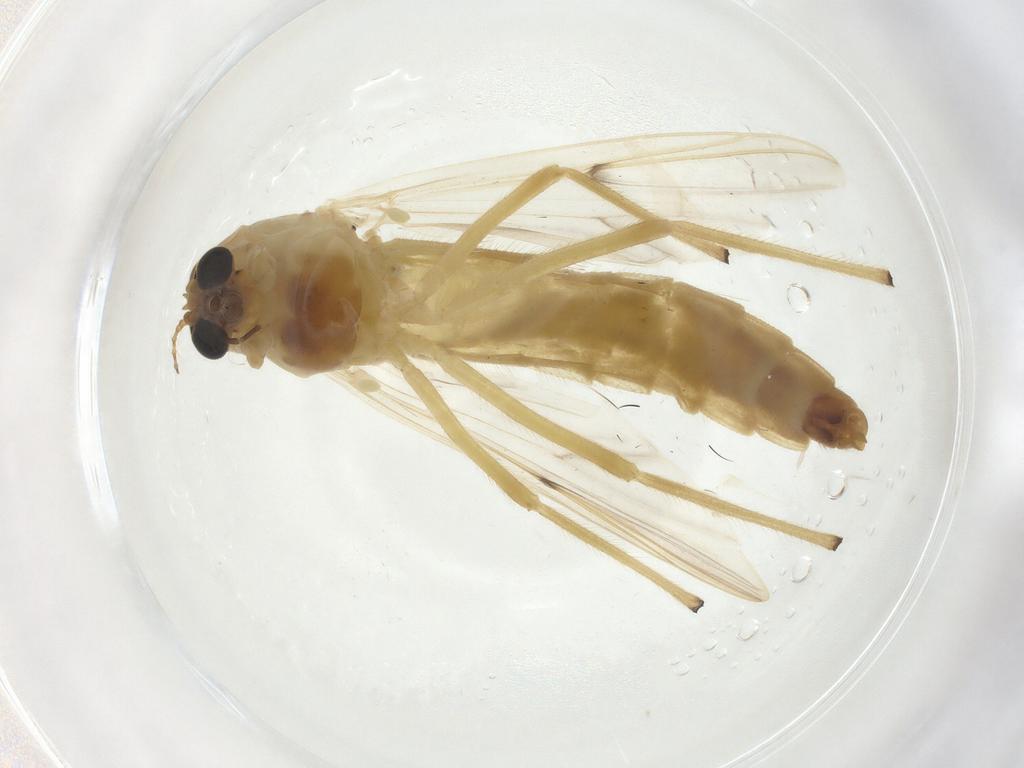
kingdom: Animalia
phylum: Arthropoda
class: Insecta
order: Diptera
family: Chironomidae
